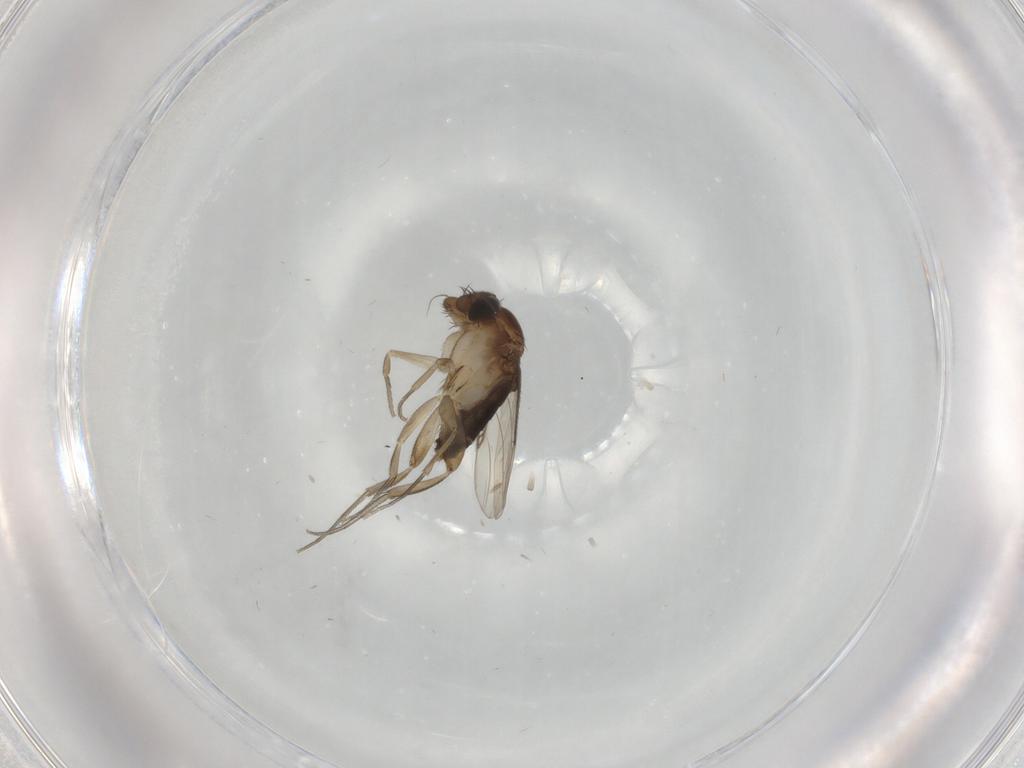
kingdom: Animalia
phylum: Arthropoda
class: Insecta
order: Diptera
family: Phoridae
